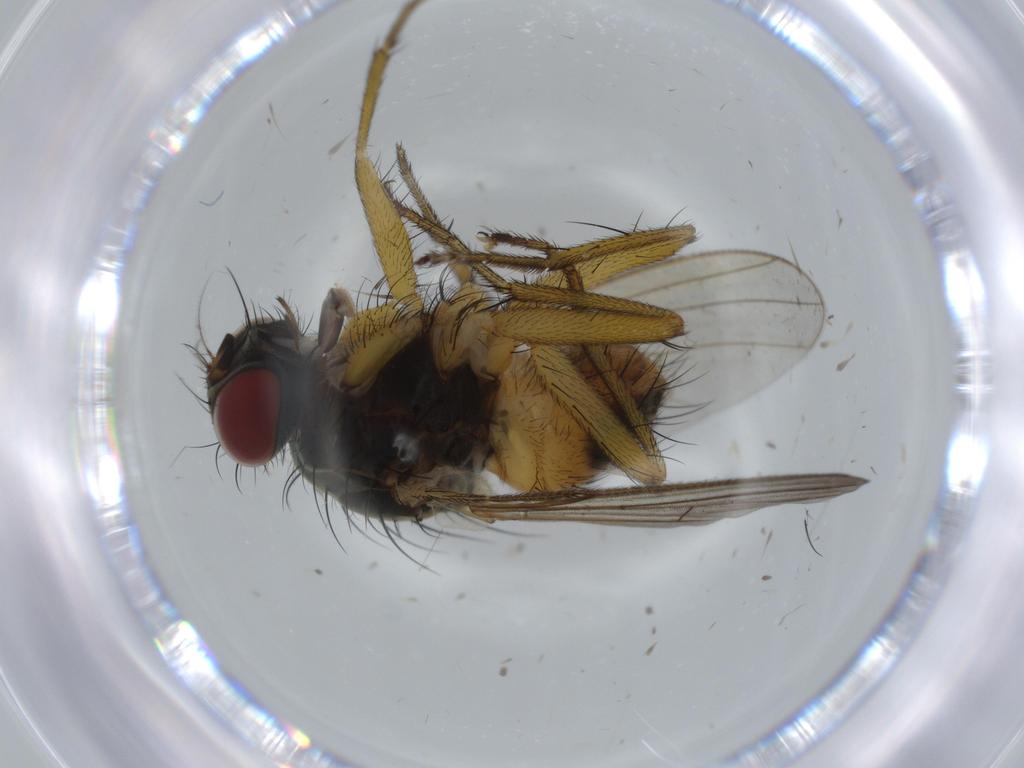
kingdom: Animalia
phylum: Arthropoda
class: Insecta
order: Diptera
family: Muscidae
